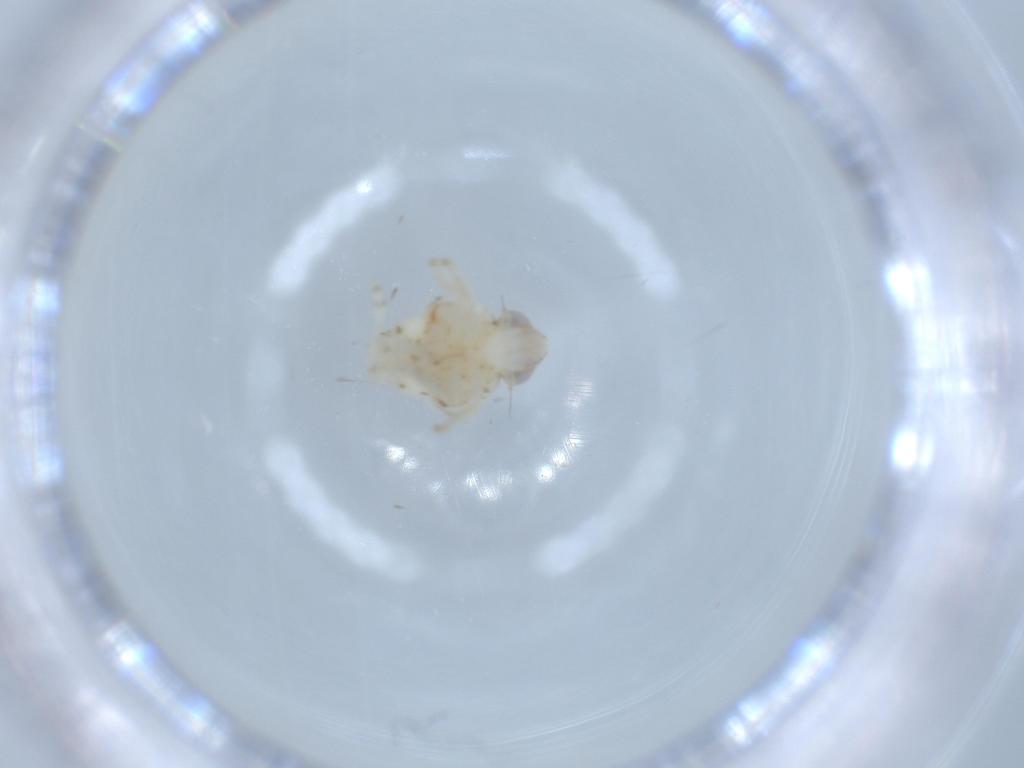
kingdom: Animalia
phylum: Arthropoda
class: Insecta
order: Hemiptera
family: Nogodinidae
